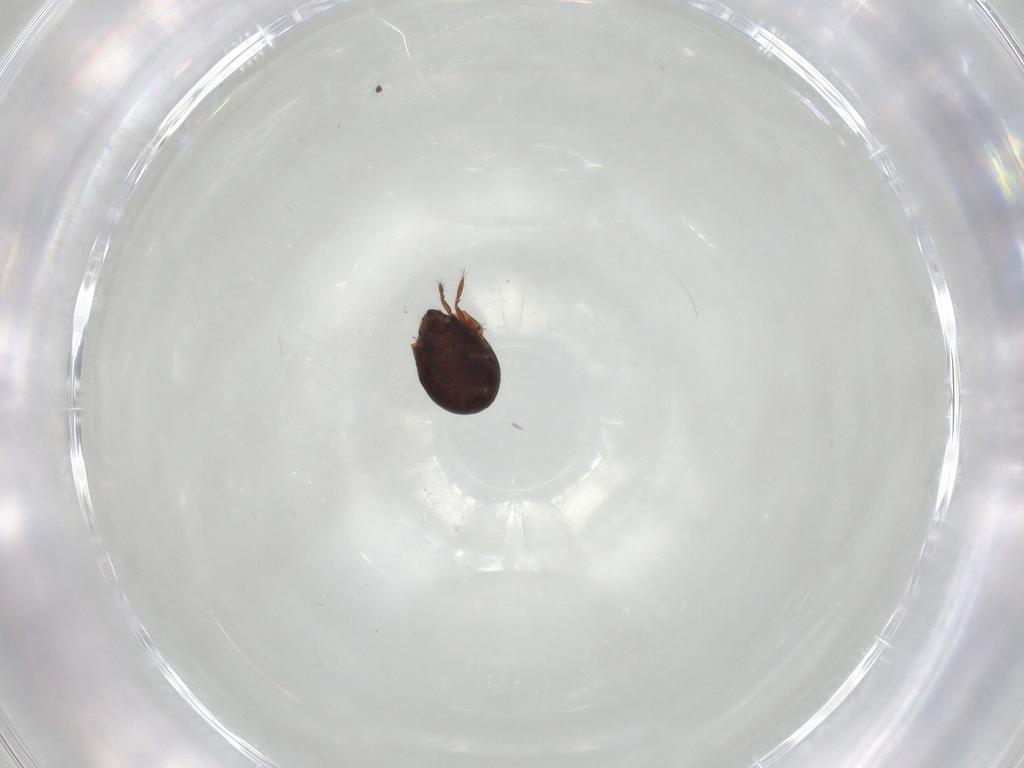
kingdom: Animalia
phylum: Arthropoda
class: Arachnida
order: Sarcoptiformes
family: Humerobatidae
